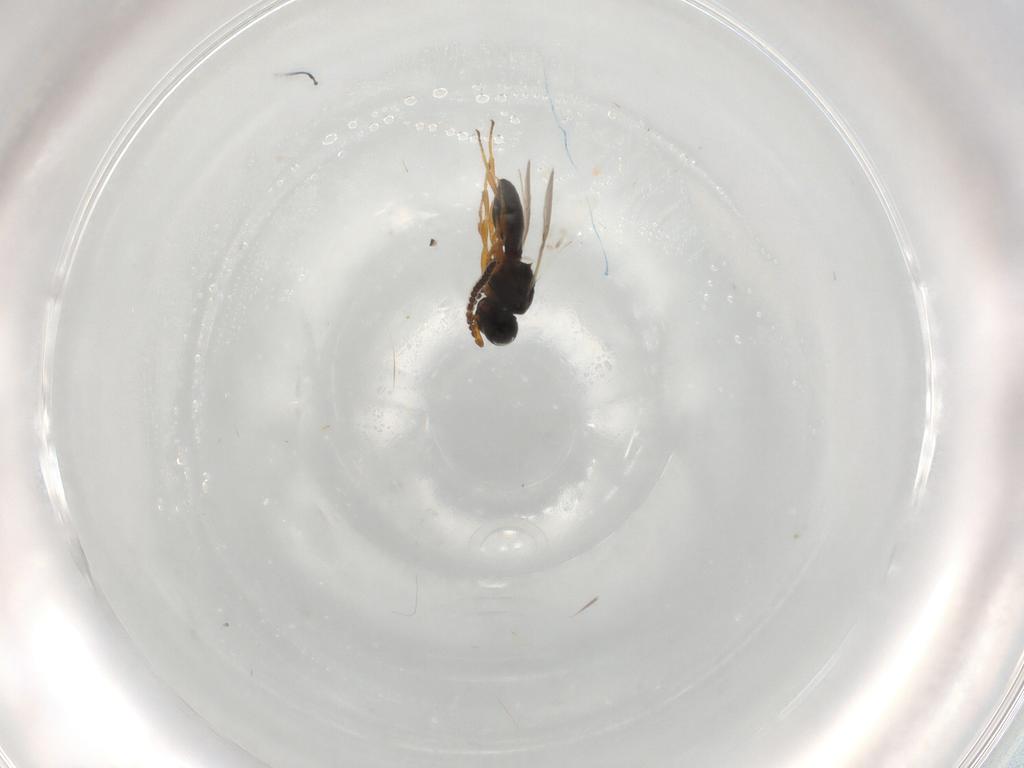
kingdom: Animalia
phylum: Arthropoda
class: Insecta
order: Hymenoptera
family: Scelionidae
